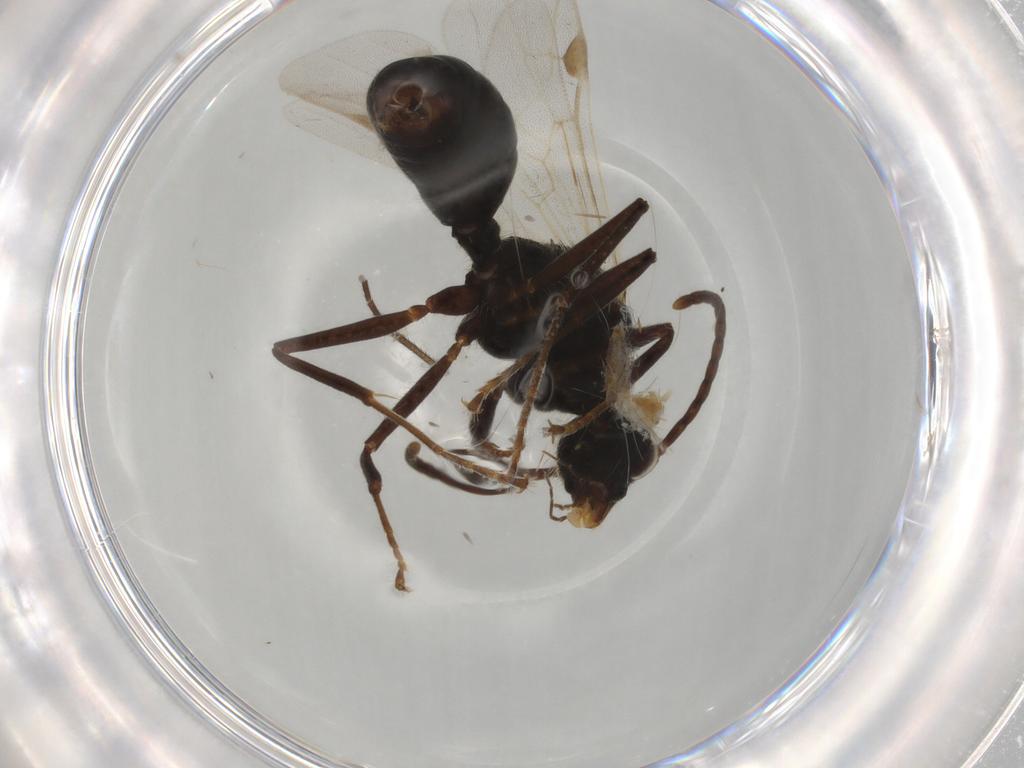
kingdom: Animalia
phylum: Arthropoda
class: Insecta
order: Hymenoptera
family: Formicidae
